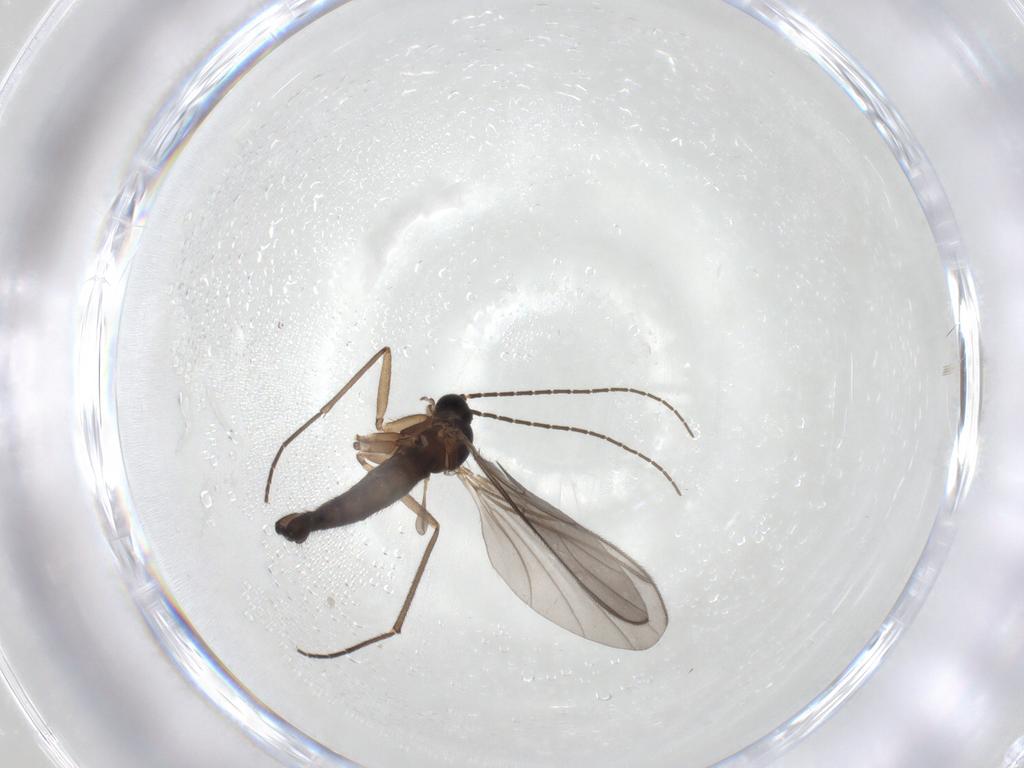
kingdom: Animalia
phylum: Arthropoda
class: Insecta
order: Diptera
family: Sciaridae
